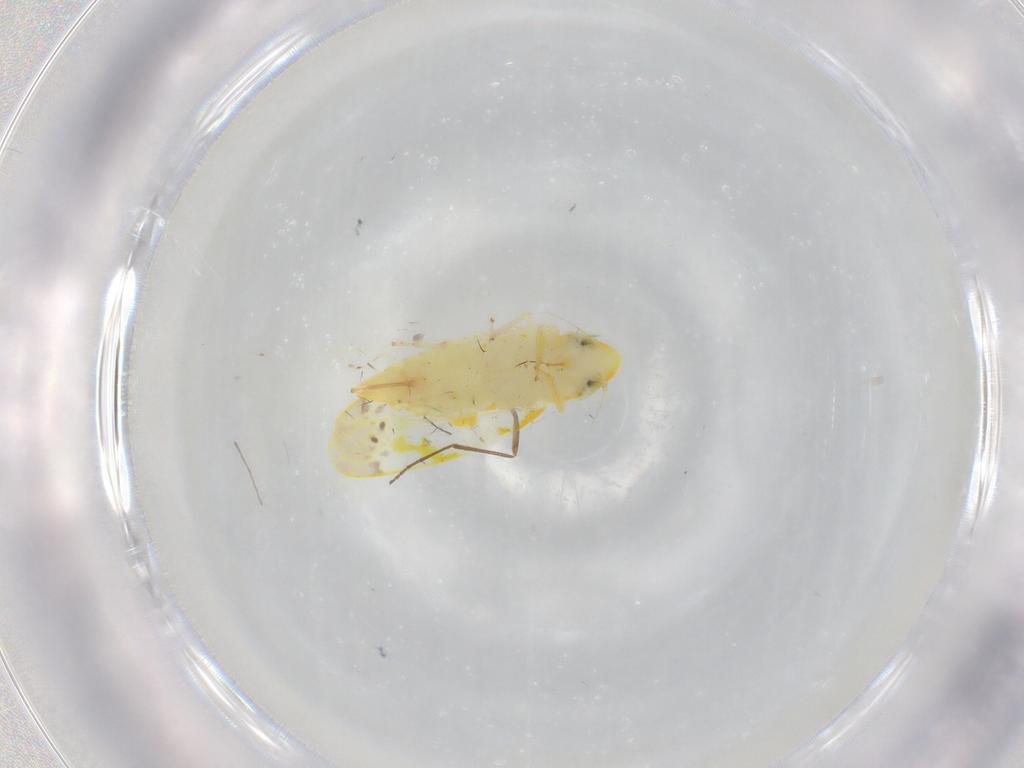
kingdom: Animalia
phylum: Arthropoda
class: Insecta
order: Hemiptera
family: Cicadellidae
